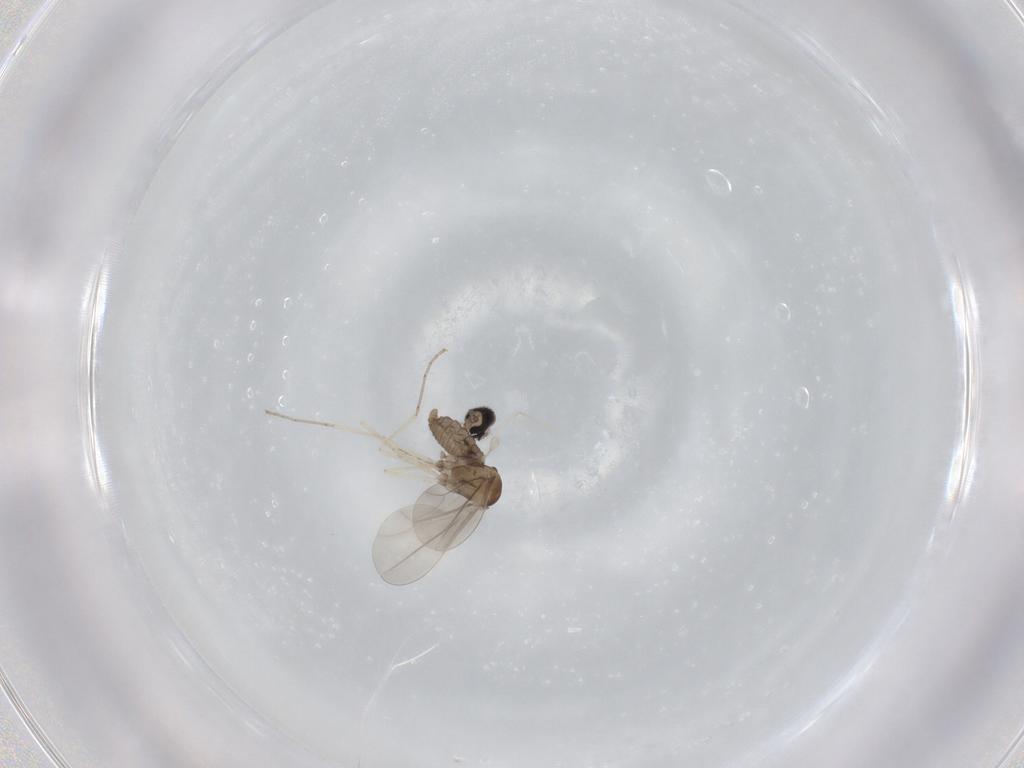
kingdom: Animalia
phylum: Arthropoda
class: Insecta
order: Diptera
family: Cecidomyiidae
